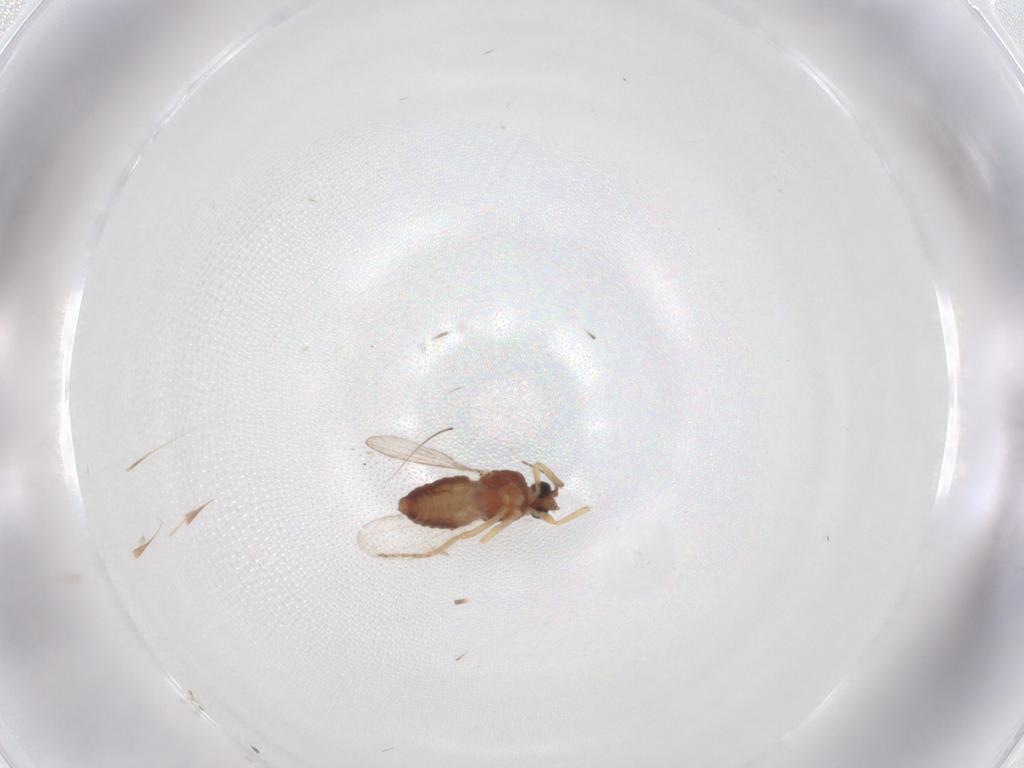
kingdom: Animalia
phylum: Arthropoda
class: Insecta
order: Diptera
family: Ceratopogonidae
